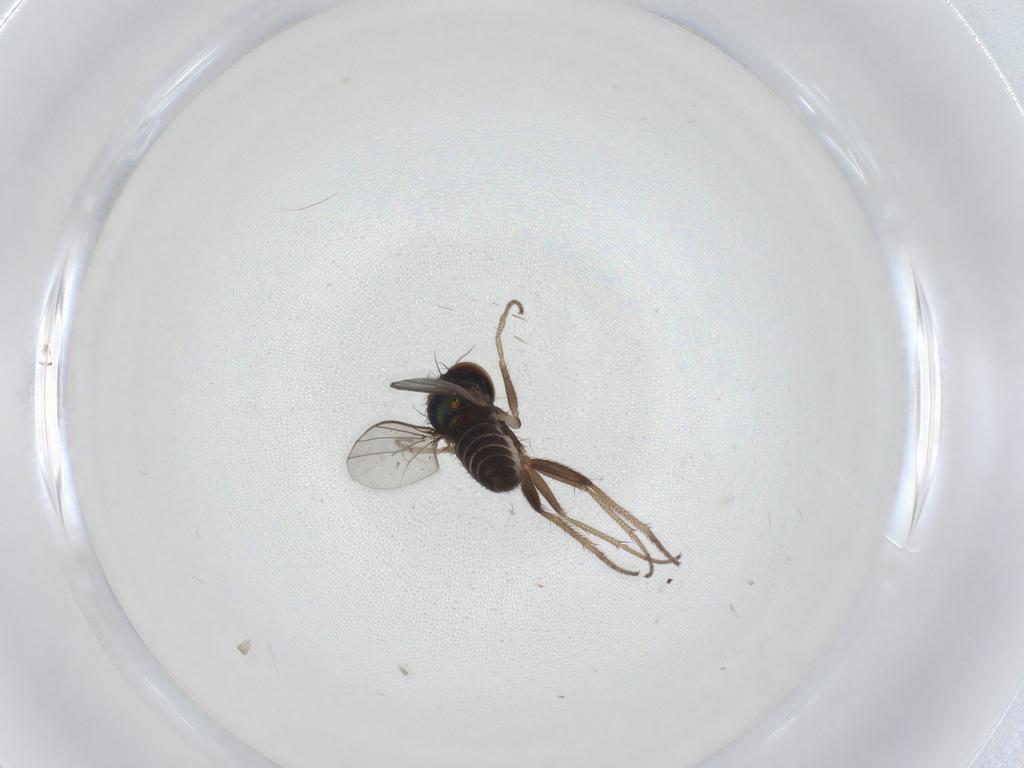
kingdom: Animalia
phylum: Arthropoda
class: Insecta
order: Diptera
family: Dolichopodidae
